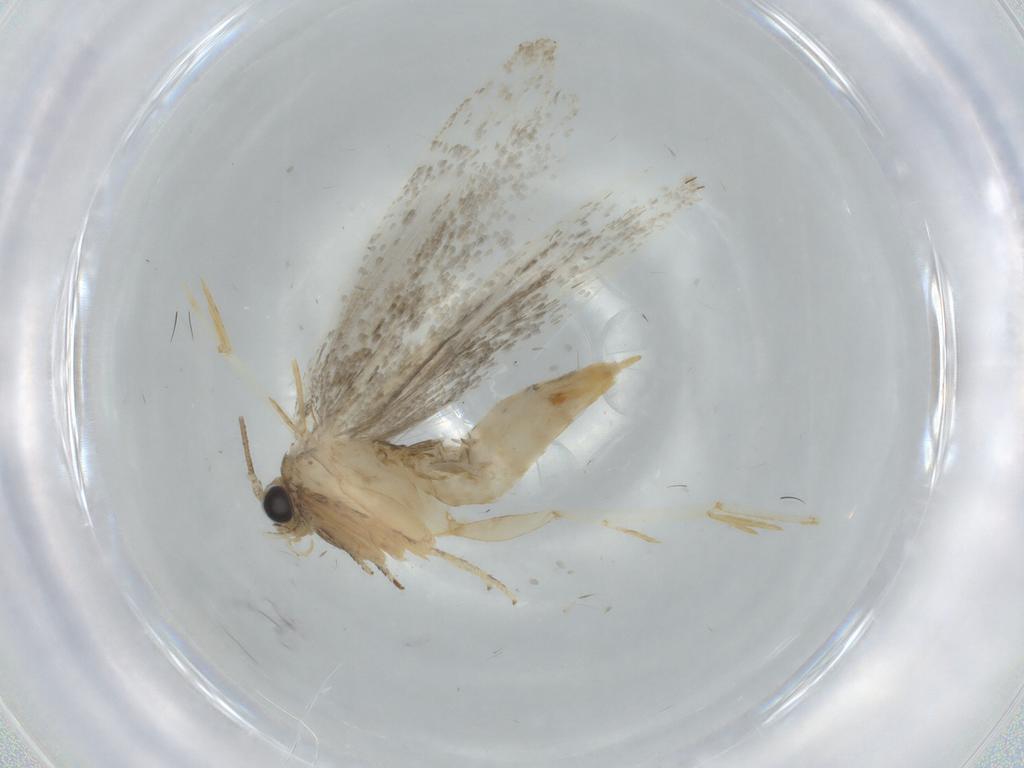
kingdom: Animalia
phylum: Arthropoda
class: Insecta
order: Lepidoptera
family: Tineidae
